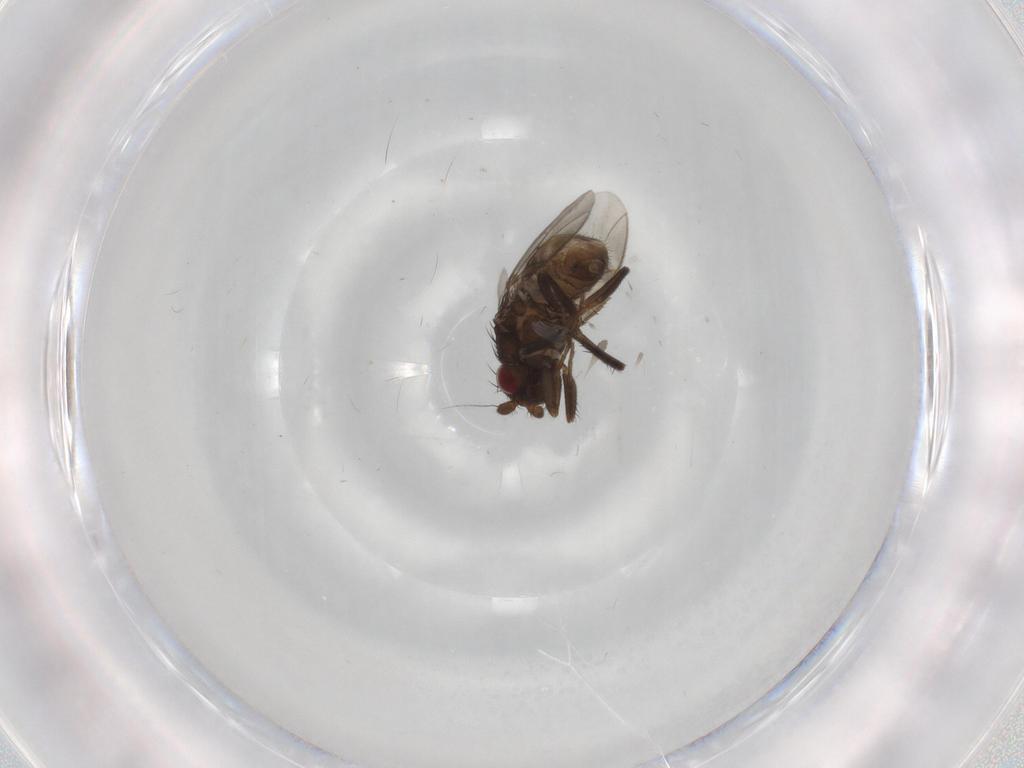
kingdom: Animalia
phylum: Arthropoda
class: Insecta
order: Diptera
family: Sphaeroceridae
